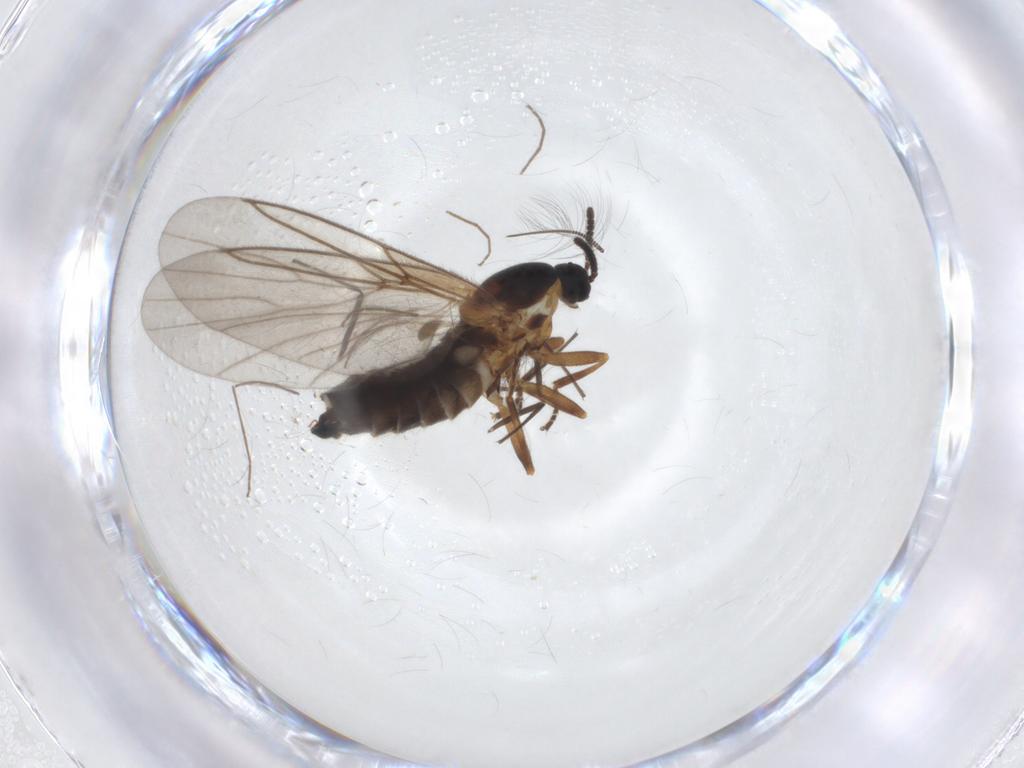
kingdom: Animalia
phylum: Arthropoda
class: Insecta
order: Diptera
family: Scatopsidae
